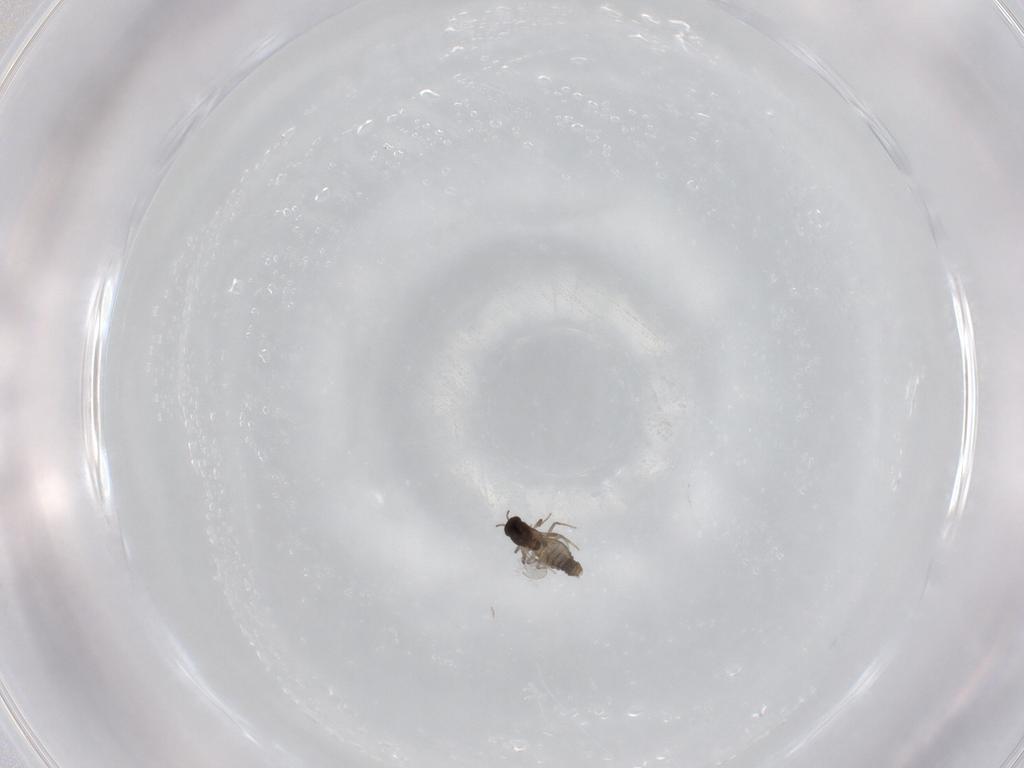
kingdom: Animalia
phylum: Arthropoda
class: Insecta
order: Diptera
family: Chironomidae
